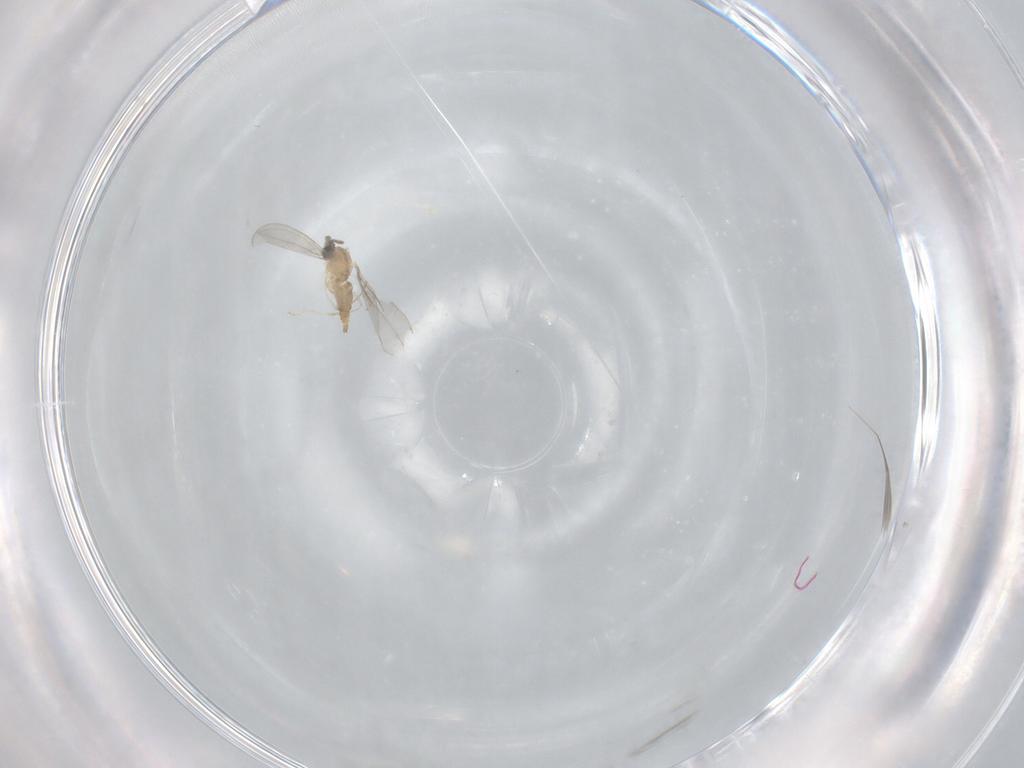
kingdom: Animalia
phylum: Arthropoda
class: Insecta
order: Diptera
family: Cecidomyiidae
